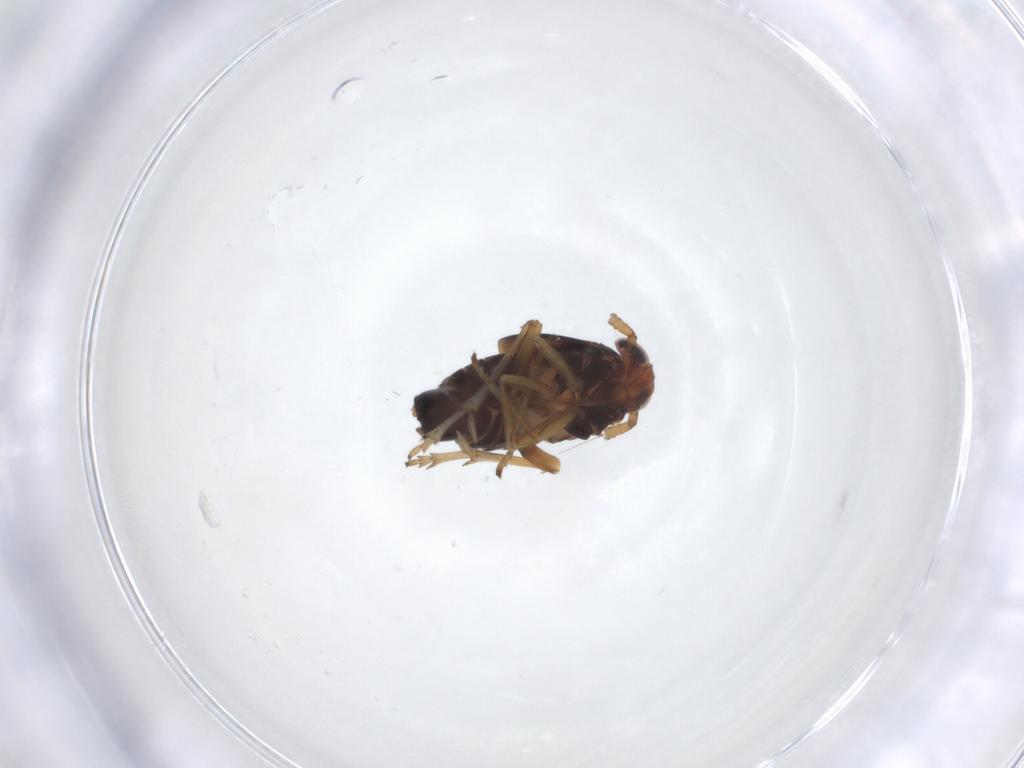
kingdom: Animalia
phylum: Arthropoda
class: Insecta
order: Hemiptera
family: Delphacidae
